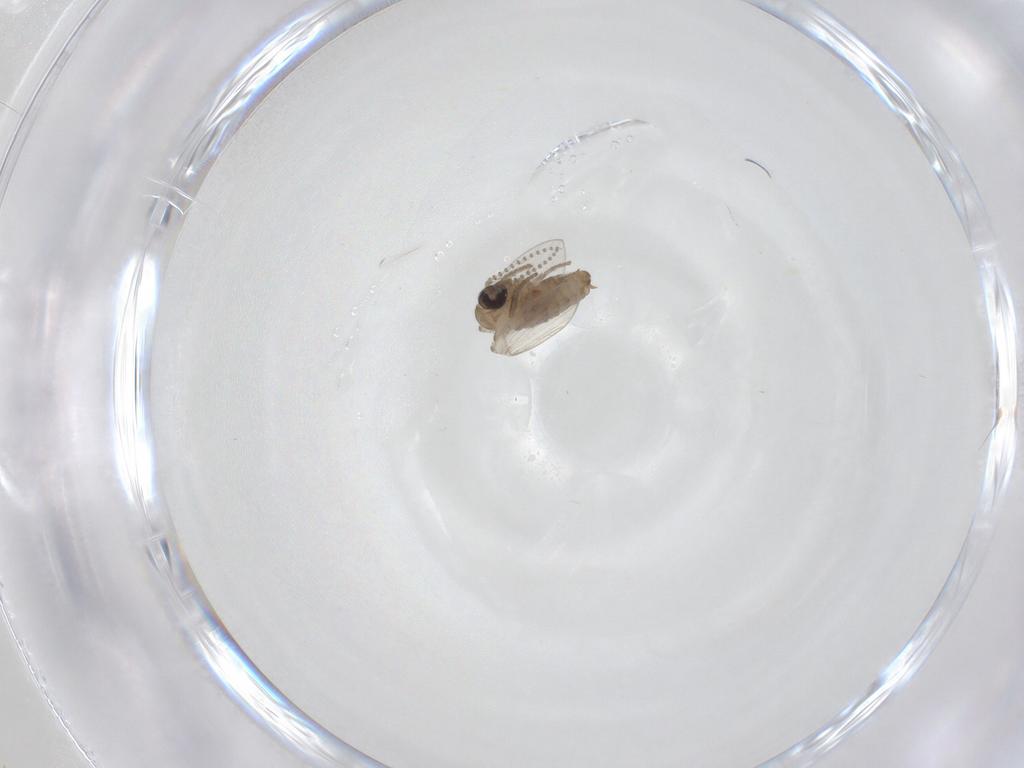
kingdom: Animalia
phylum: Arthropoda
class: Insecta
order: Diptera
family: Psychodidae
